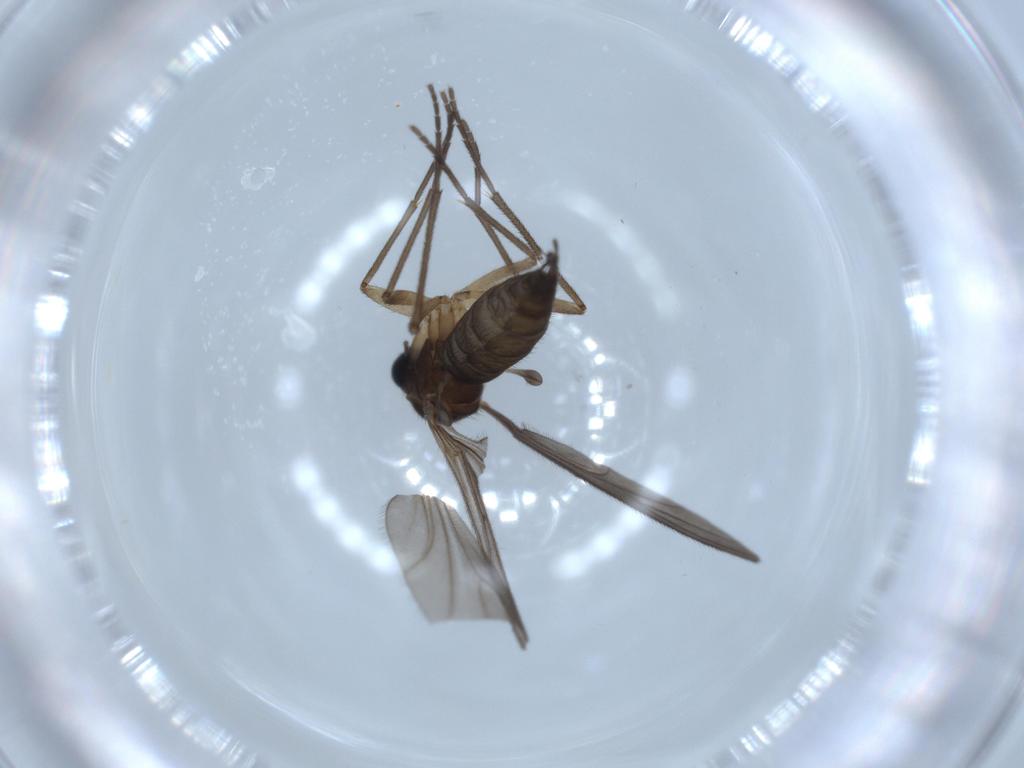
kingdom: Animalia
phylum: Arthropoda
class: Insecta
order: Diptera
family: Sciaridae
